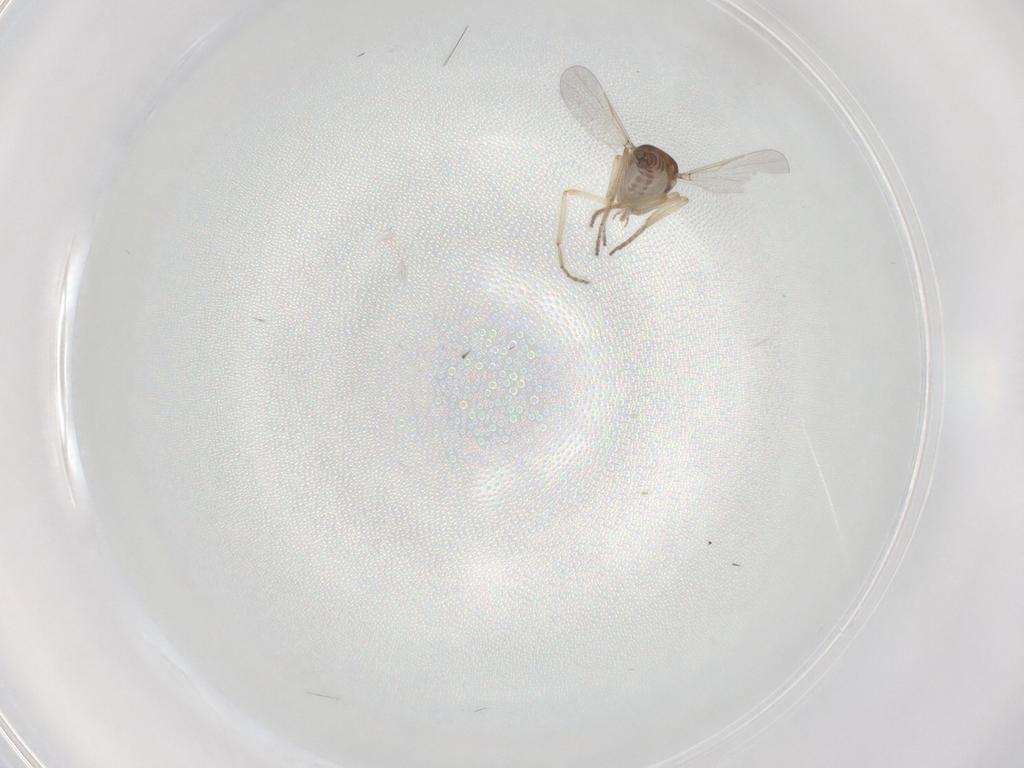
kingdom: Animalia
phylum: Arthropoda
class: Insecta
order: Diptera
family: Ceratopogonidae
